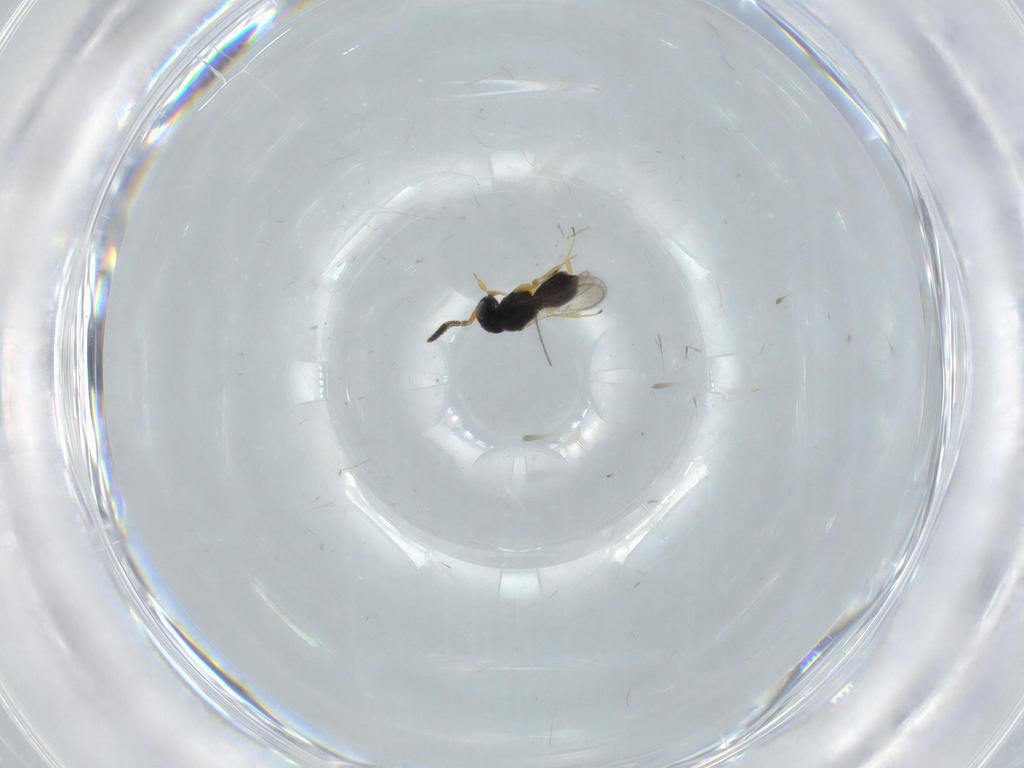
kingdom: Animalia
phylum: Arthropoda
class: Insecta
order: Hymenoptera
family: Scelionidae
